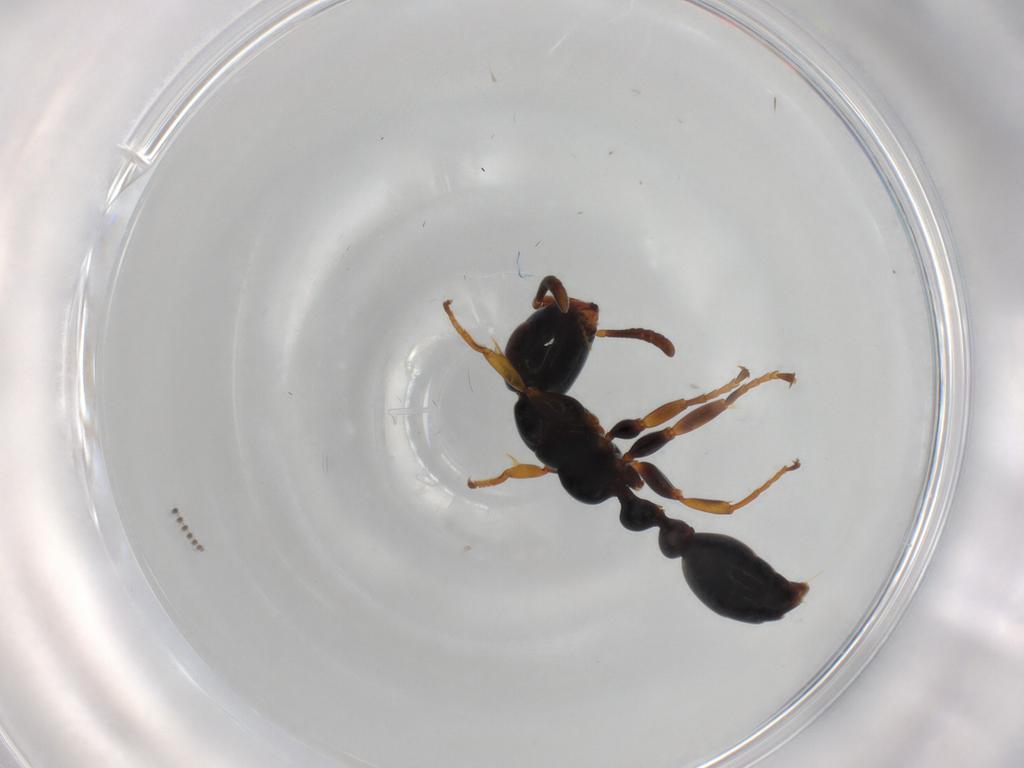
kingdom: Animalia
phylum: Arthropoda
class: Insecta
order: Hymenoptera
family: Formicidae
